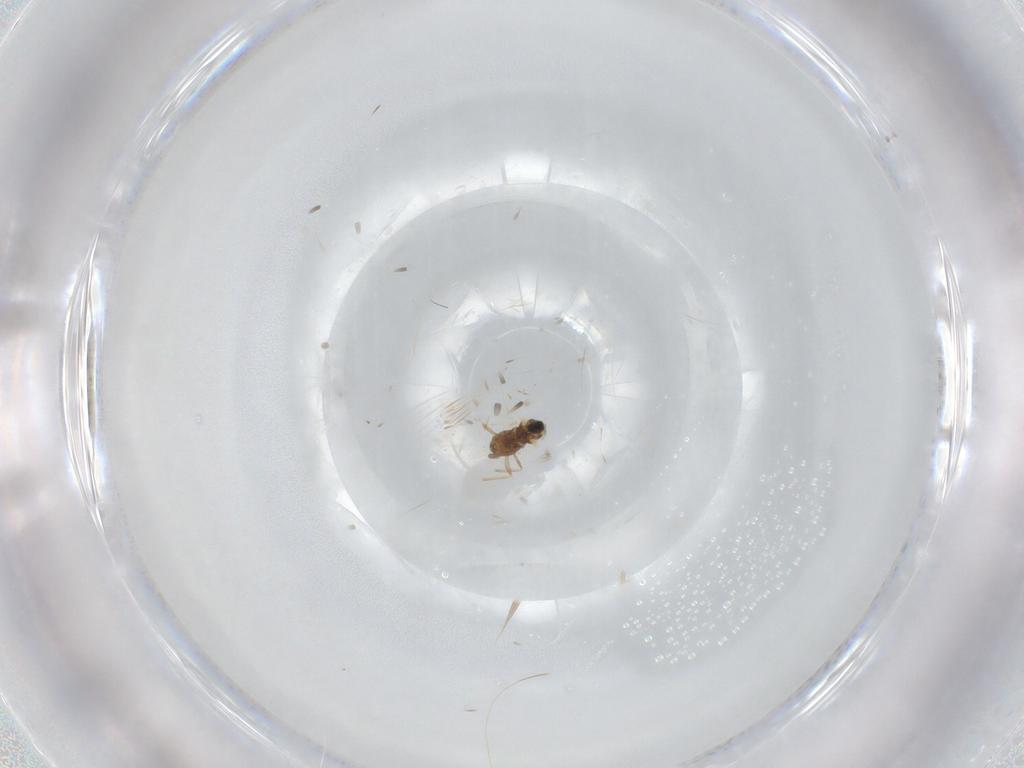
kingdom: Animalia
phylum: Arthropoda
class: Insecta
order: Diptera
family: Cecidomyiidae
